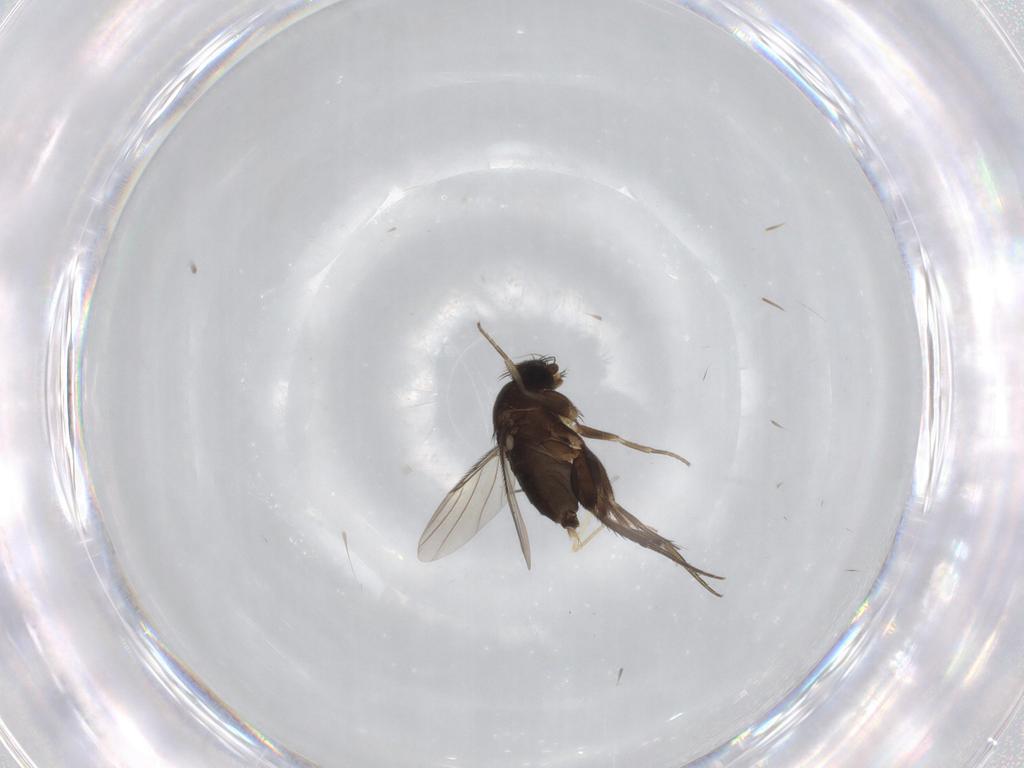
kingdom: Animalia
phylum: Arthropoda
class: Insecta
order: Diptera
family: Phoridae
